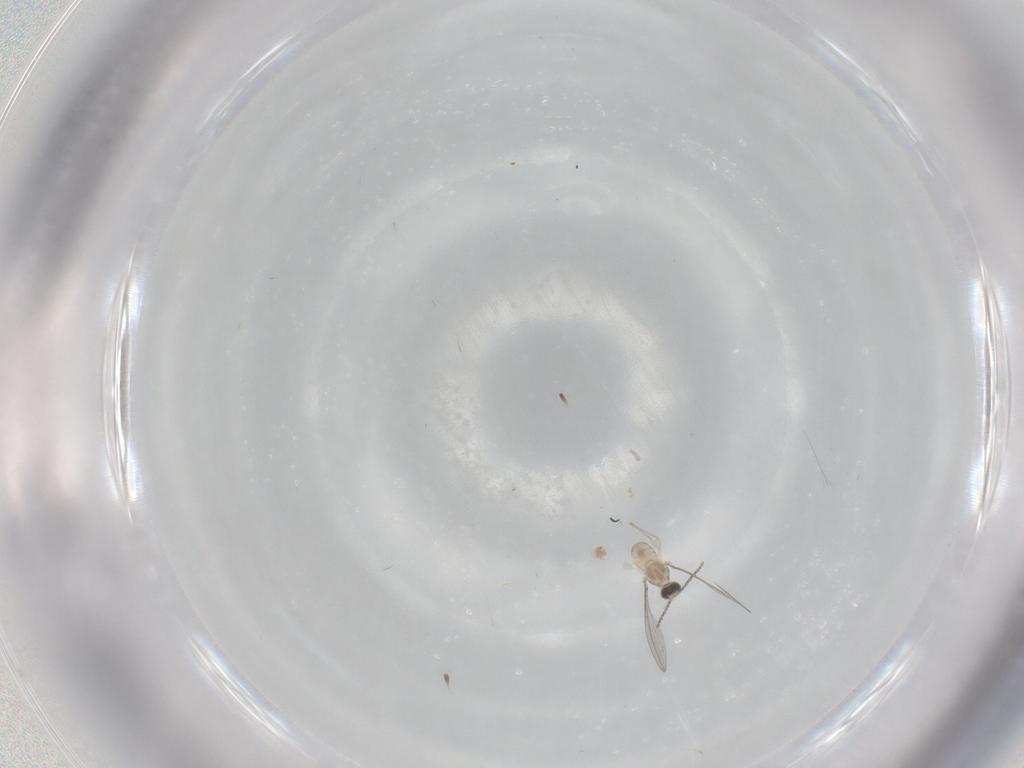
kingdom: Animalia
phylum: Arthropoda
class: Insecta
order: Diptera
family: Cecidomyiidae
